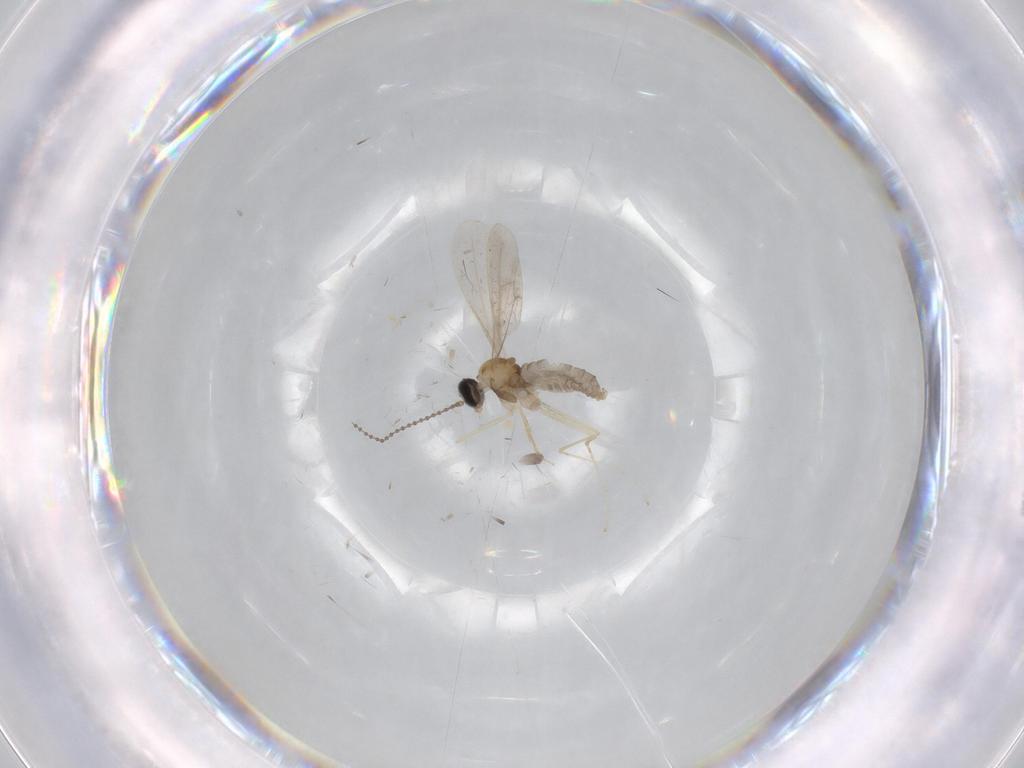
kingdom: Animalia
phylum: Arthropoda
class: Insecta
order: Diptera
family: Cecidomyiidae
